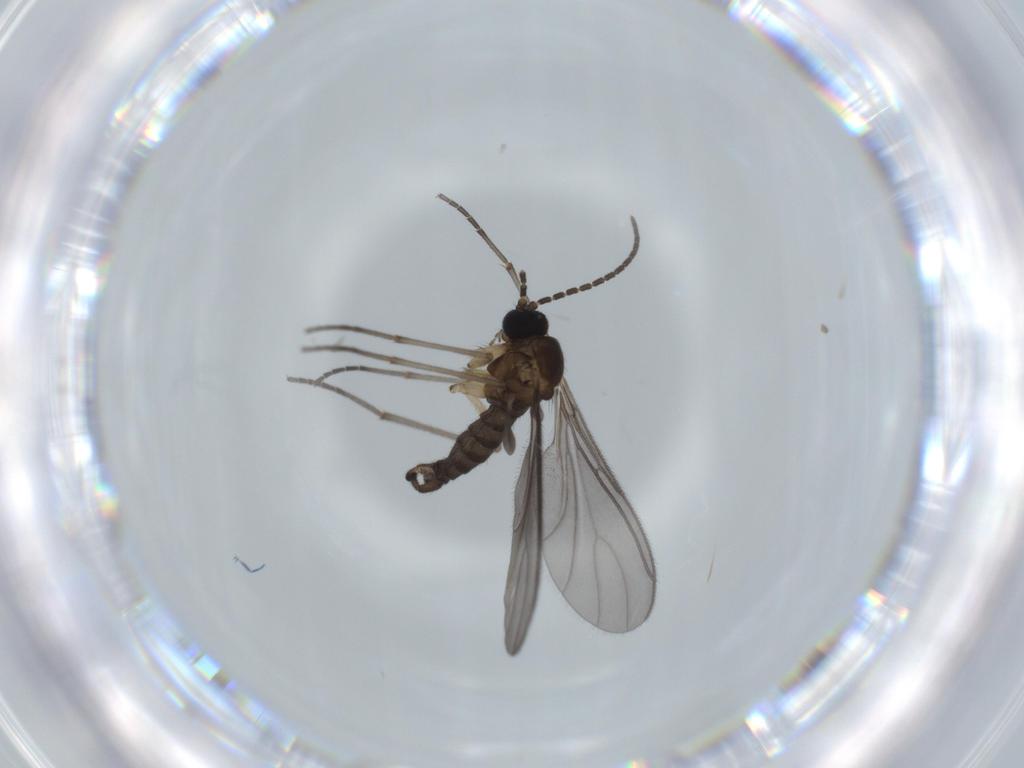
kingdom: Animalia
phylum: Arthropoda
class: Insecta
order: Diptera
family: Sciaridae
